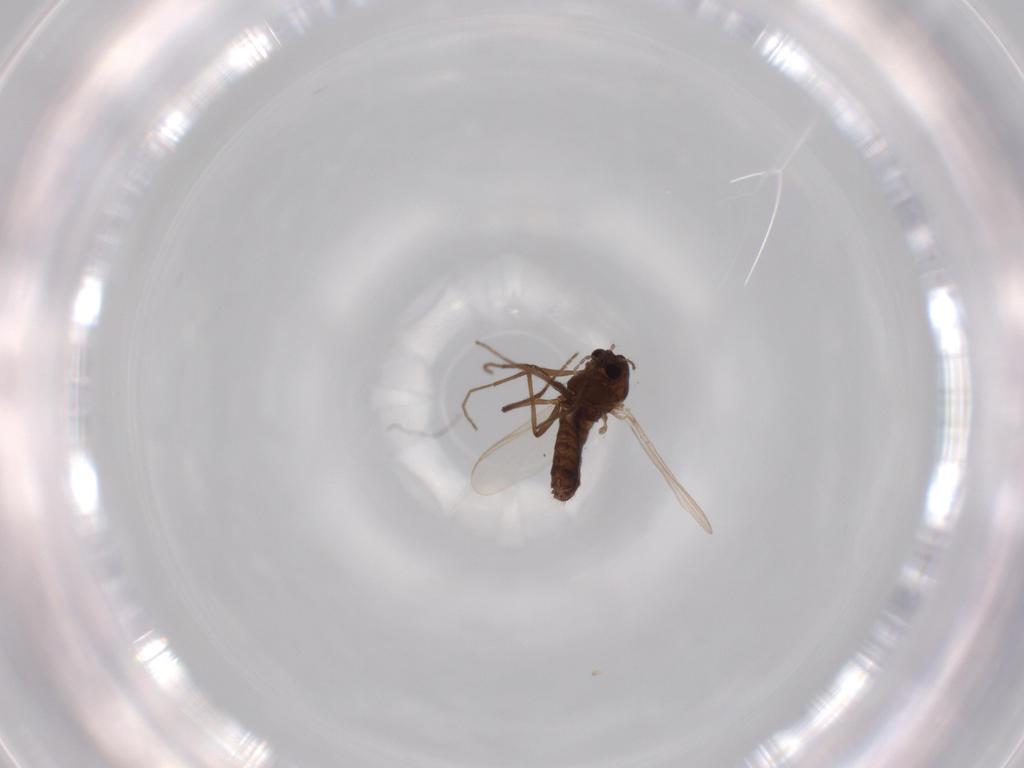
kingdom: Animalia
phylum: Arthropoda
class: Insecta
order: Diptera
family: Chironomidae
